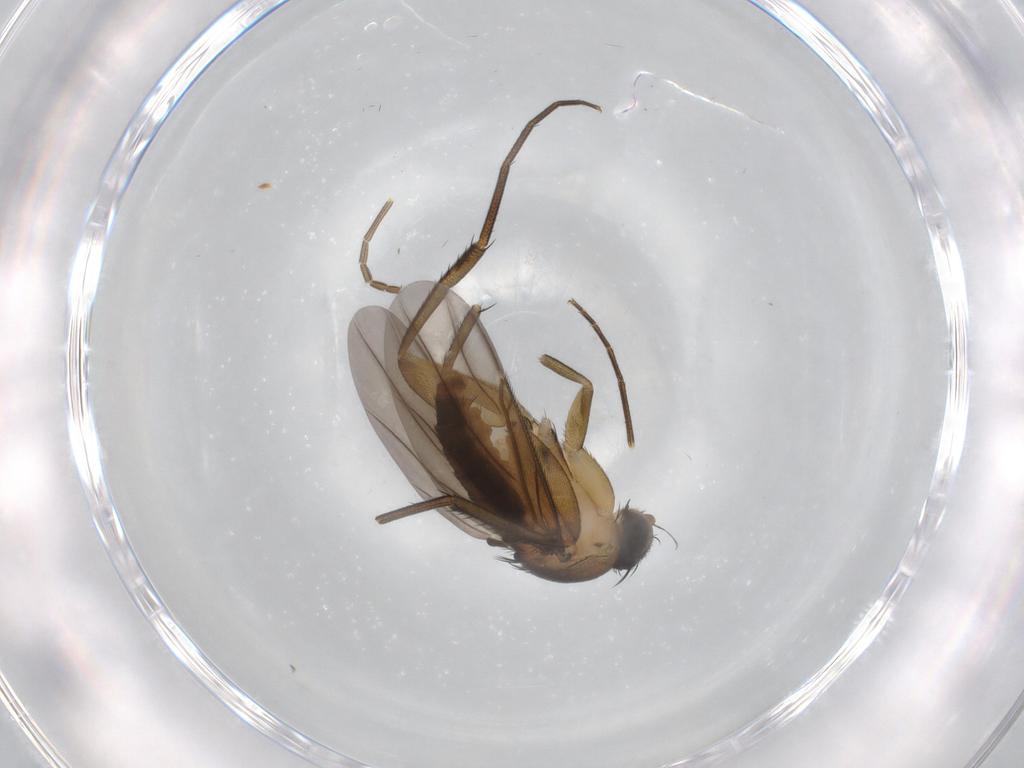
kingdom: Animalia
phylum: Arthropoda
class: Insecta
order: Diptera
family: Phoridae
